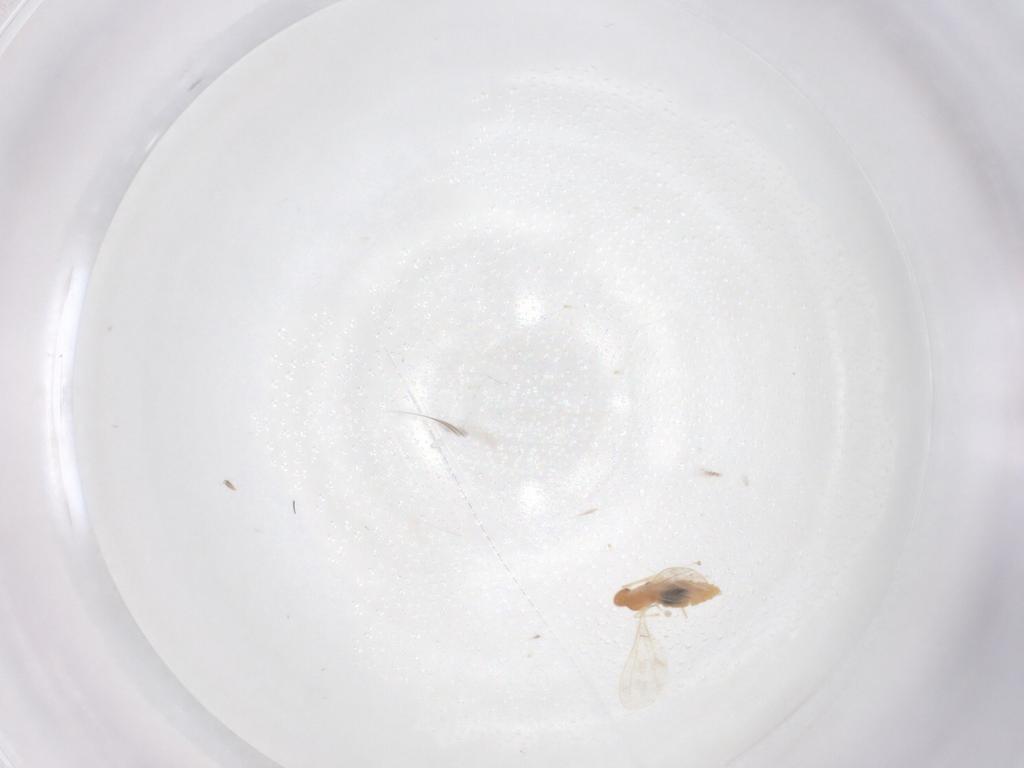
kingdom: Animalia
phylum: Arthropoda
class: Insecta
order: Diptera
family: Cecidomyiidae
